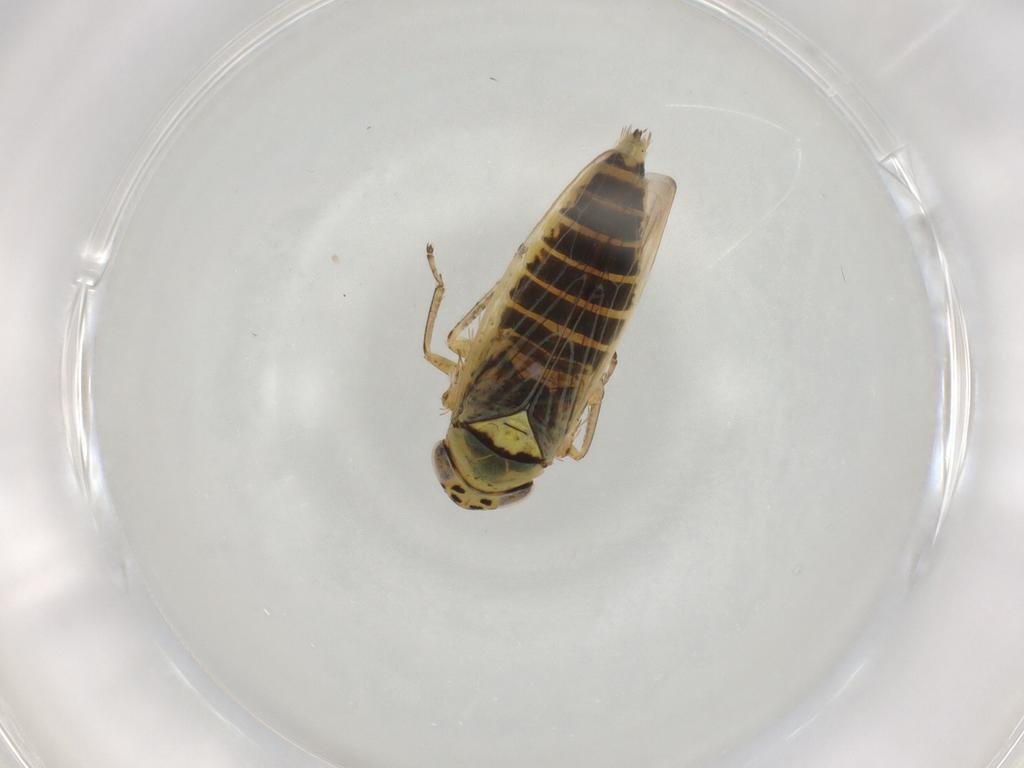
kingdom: Animalia
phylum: Arthropoda
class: Insecta
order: Hemiptera
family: Cicadellidae
